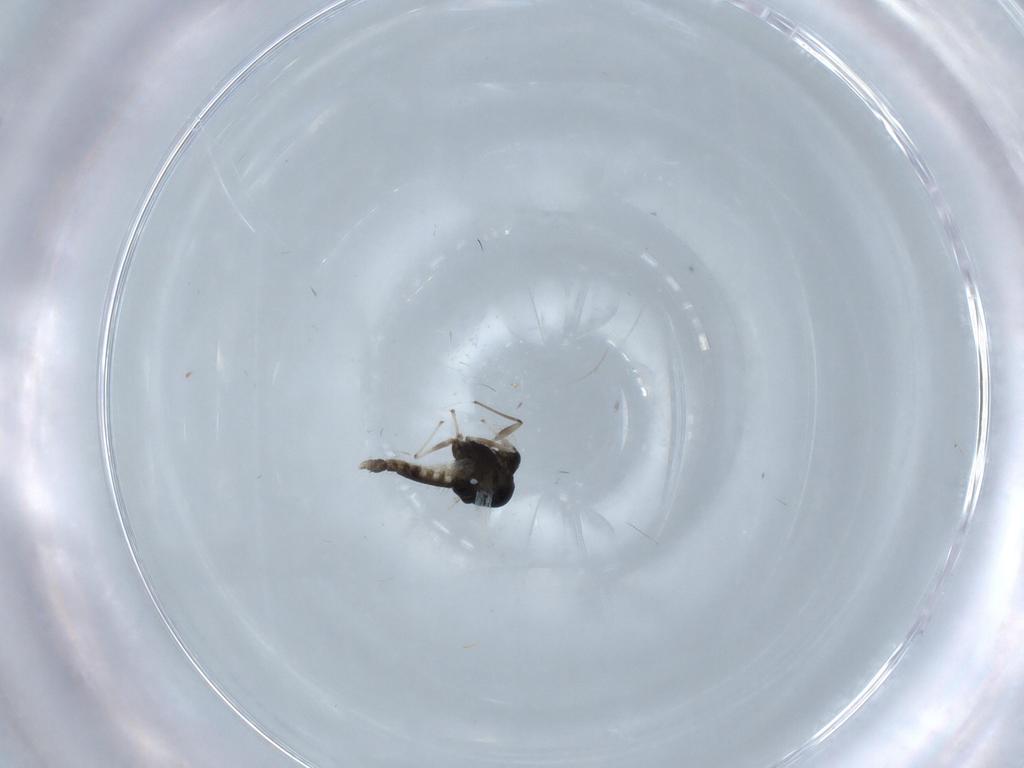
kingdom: Animalia
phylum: Arthropoda
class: Insecta
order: Diptera
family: Chironomidae
